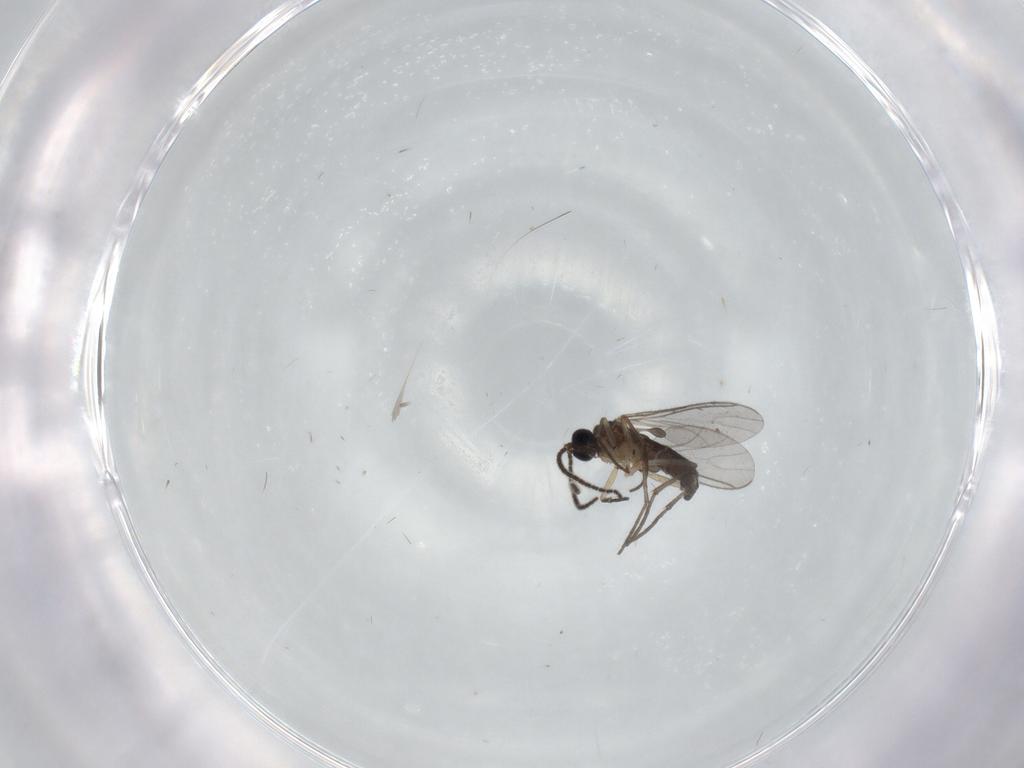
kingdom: Animalia
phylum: Arthropoda
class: Insecta
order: Diptera
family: Sciaridae
